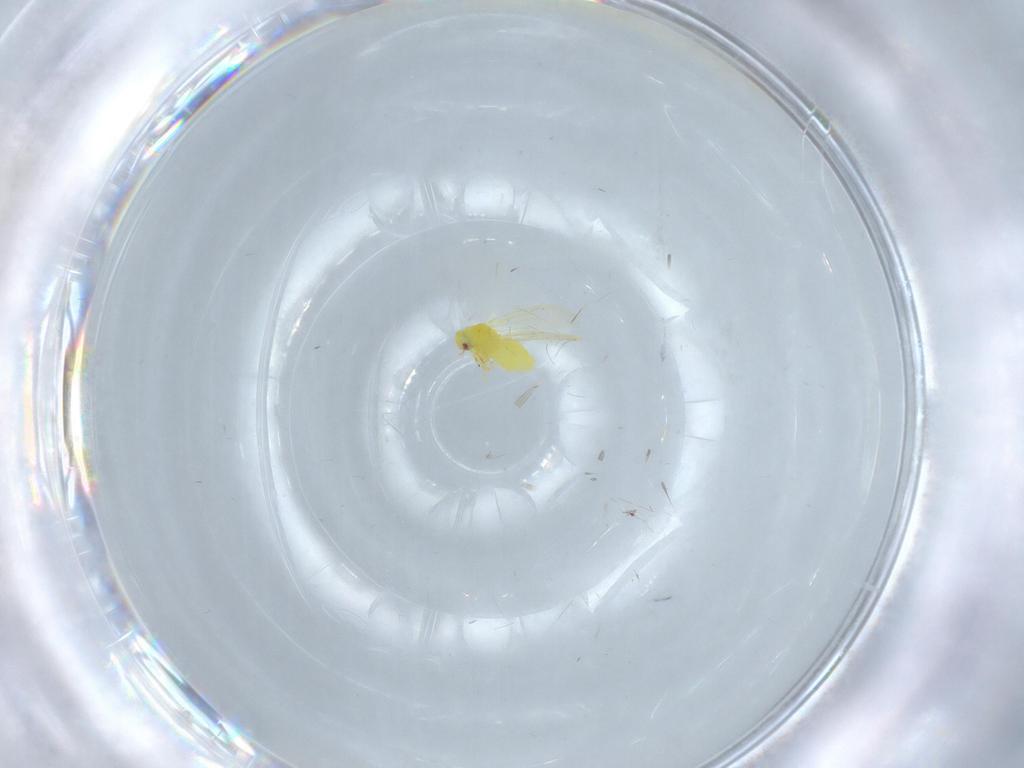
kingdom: Animalia
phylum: Arthropoda
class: Insecta
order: Hemiptera
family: Aleyrodidae
